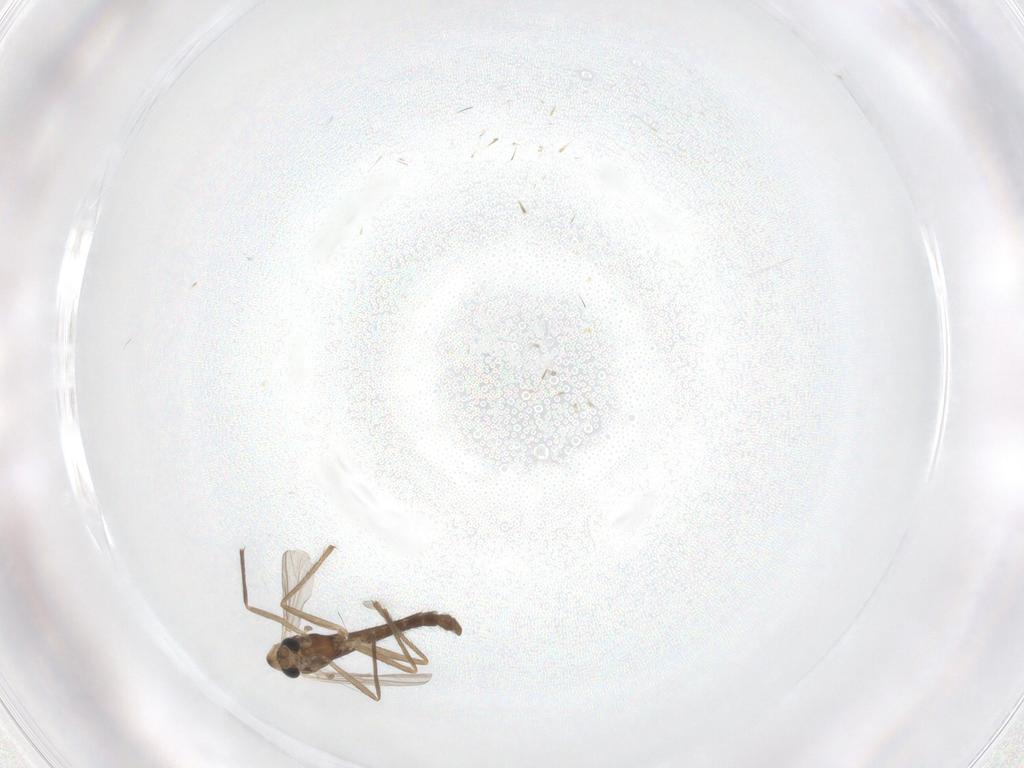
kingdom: Animalia
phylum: Arthropoda
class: Insecta
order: Diptera
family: Chironomidae
